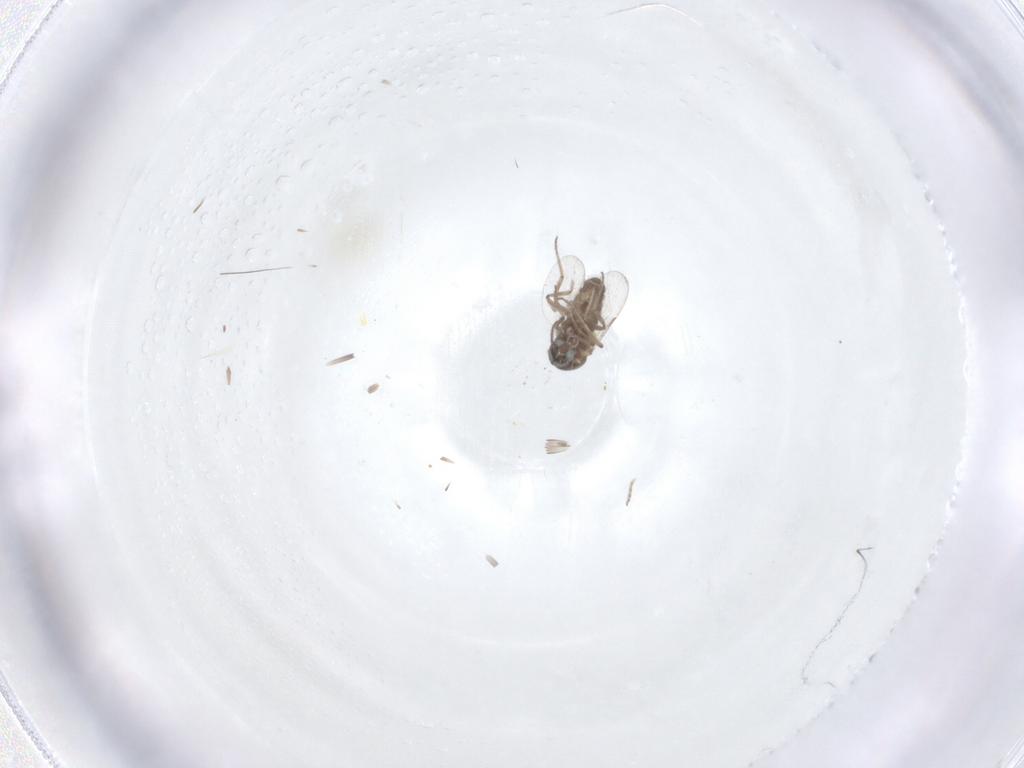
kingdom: Animalia
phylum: Arthropoda
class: Insecta
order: Diptera
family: Ceratopogonidae
